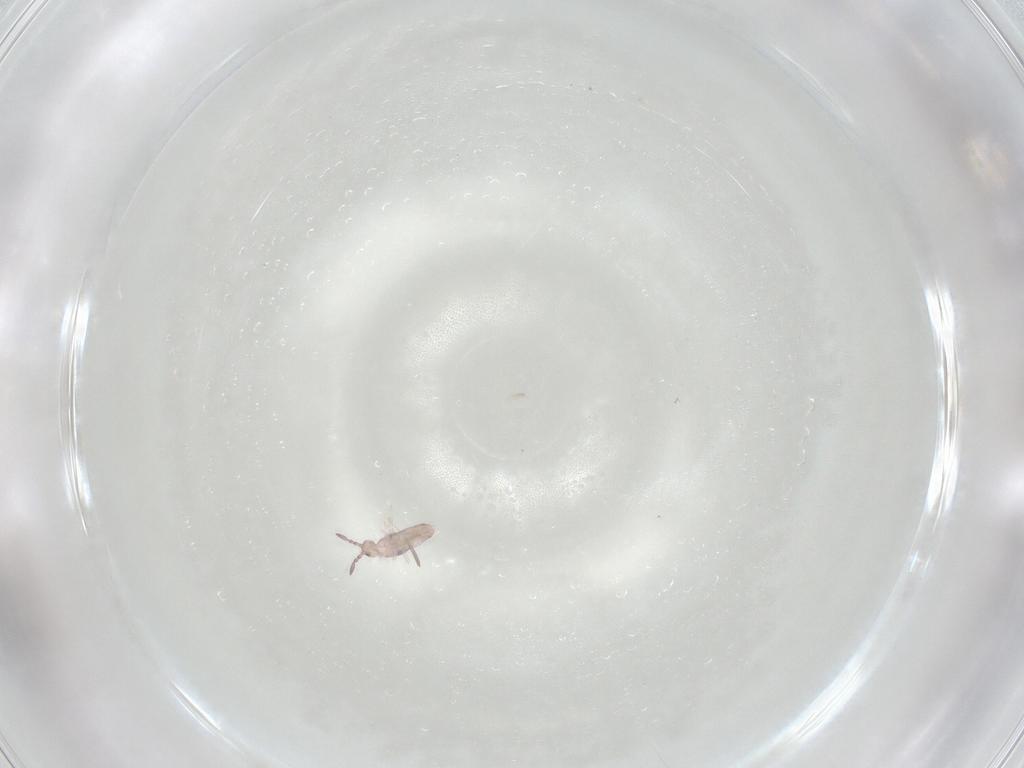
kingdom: Animalia
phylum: Arthropoda
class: Collembola
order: Entomobryomorpha
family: Entomobryidae
